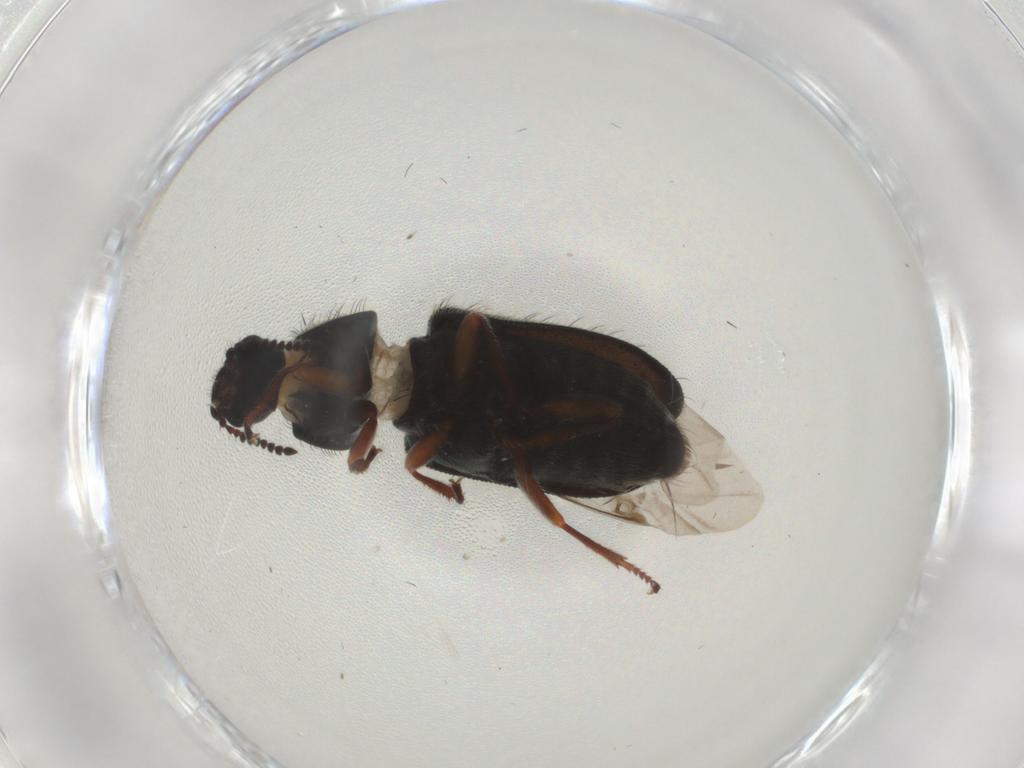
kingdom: Animalia
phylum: Arthropoda
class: Insecta
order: Coleoptera
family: Melyridae
